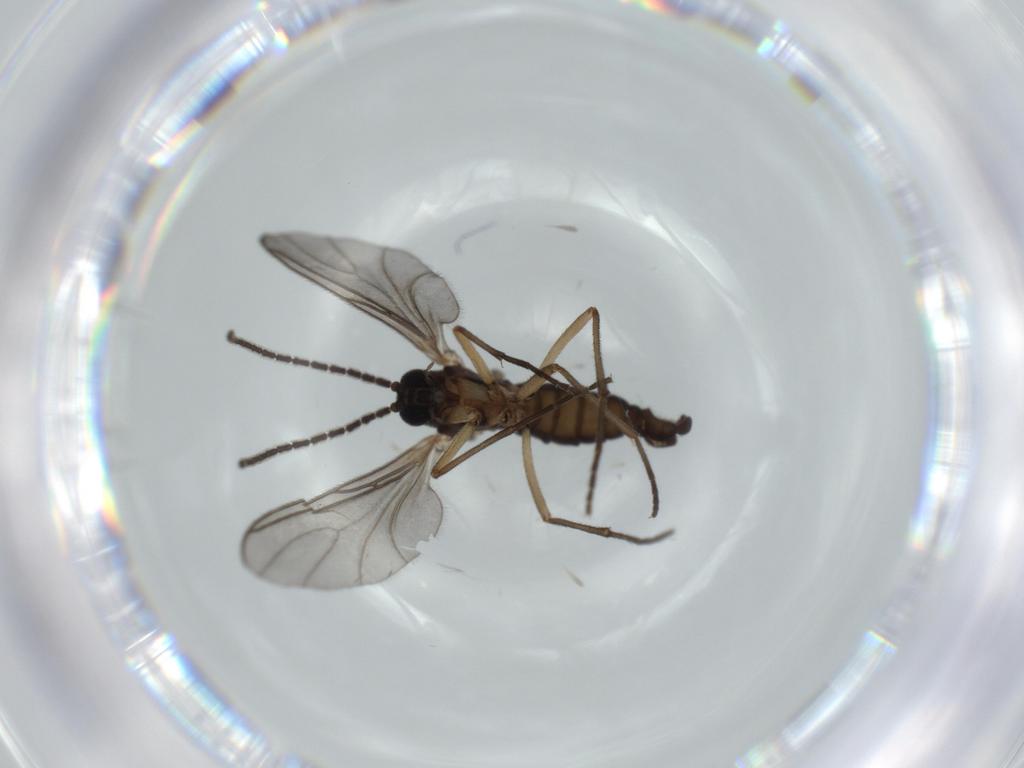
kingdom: Animalia
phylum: Arthropoda
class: Insecta
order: Diptera
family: Sciaridae
